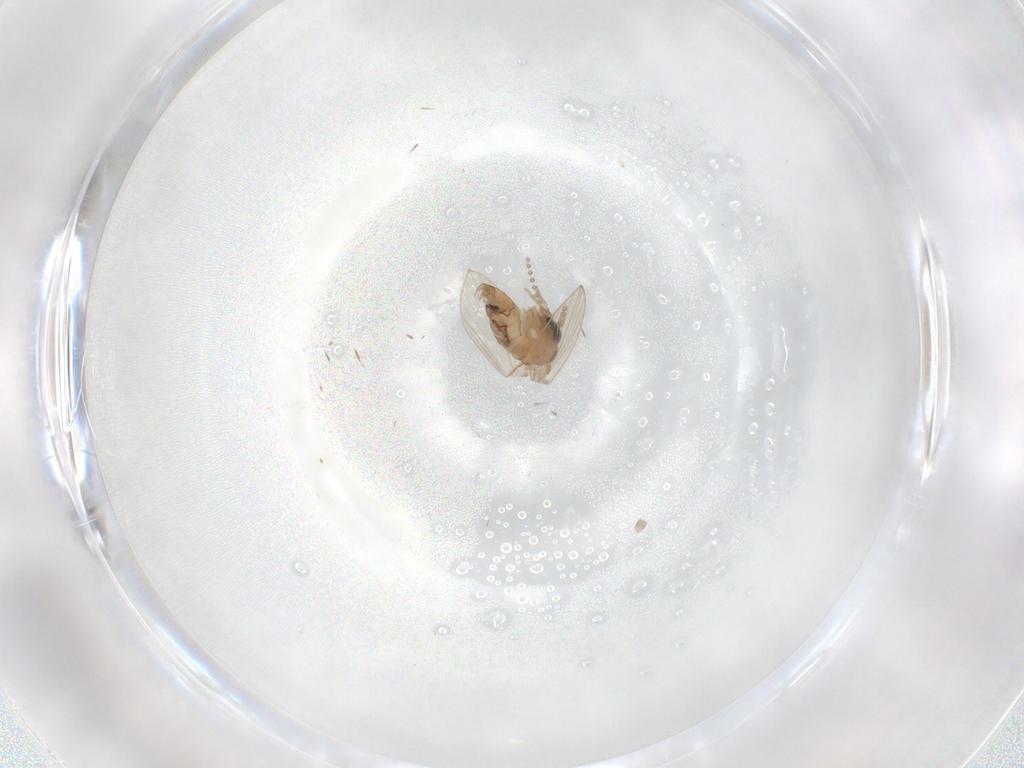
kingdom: Animalia
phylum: Arthropoda
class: Insecta
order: Diptera
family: Psychodidae
